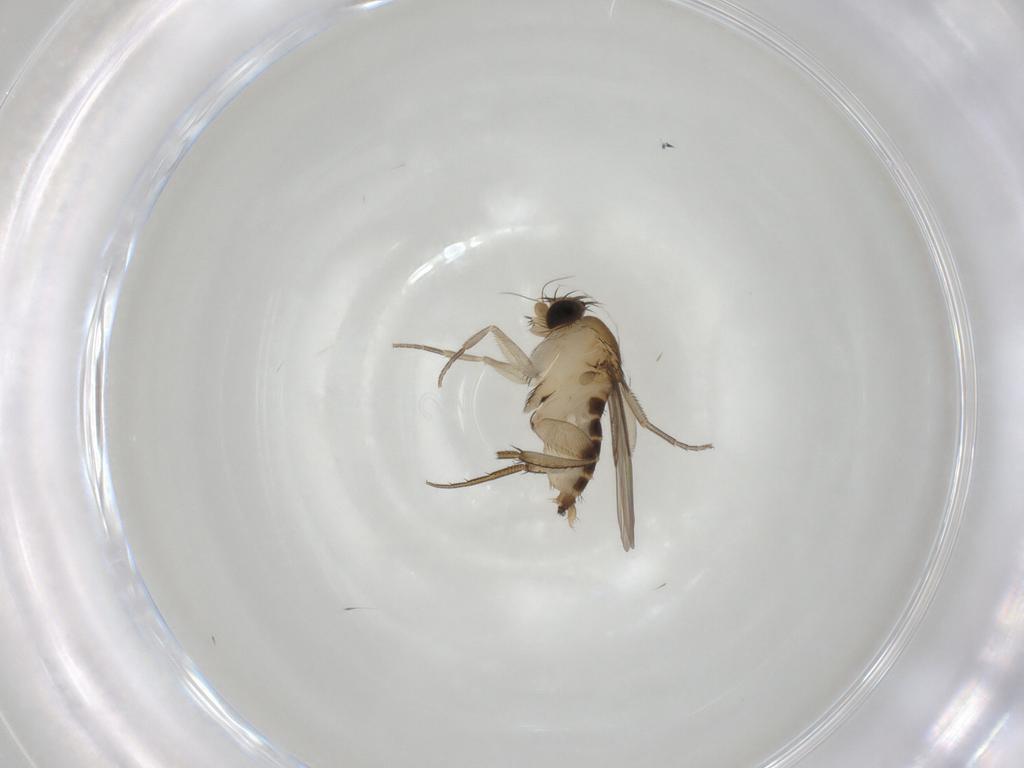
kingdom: Animalia
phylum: Arthropoda
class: Insecta
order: Diptera
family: Phoridae
